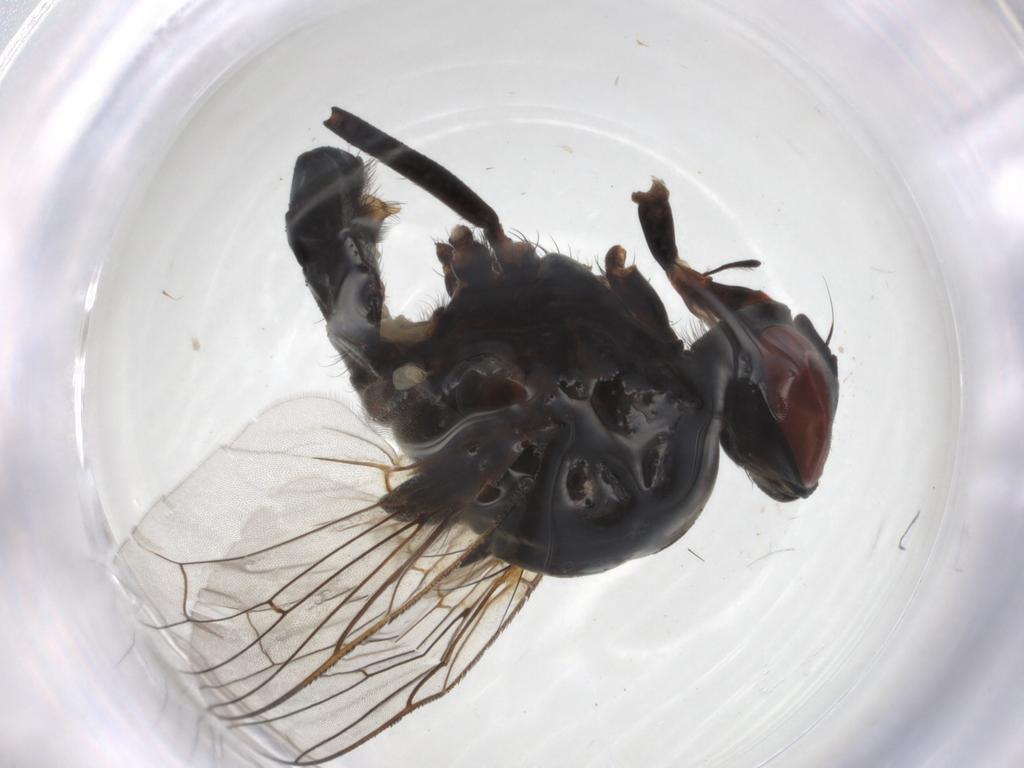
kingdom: Animalia
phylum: Arthropoda
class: Insecta
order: Diptera
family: Anthomyiidae
